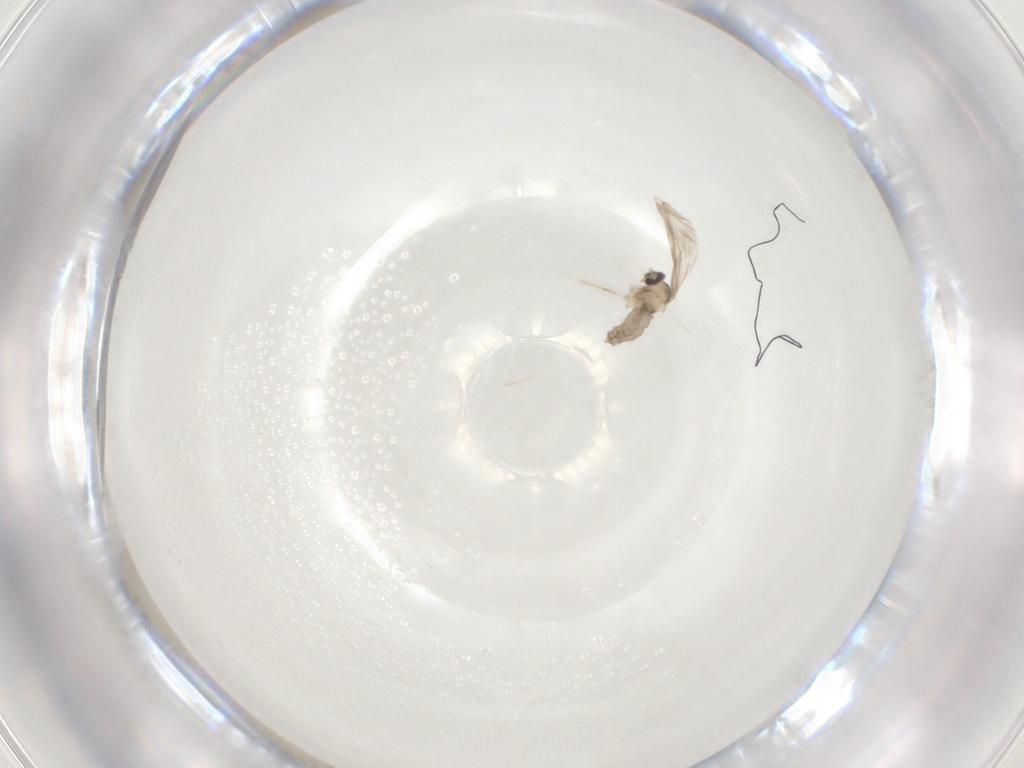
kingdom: Animalia
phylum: Arthropoda
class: Insecta
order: Diptera
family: Cecidomyiidae
